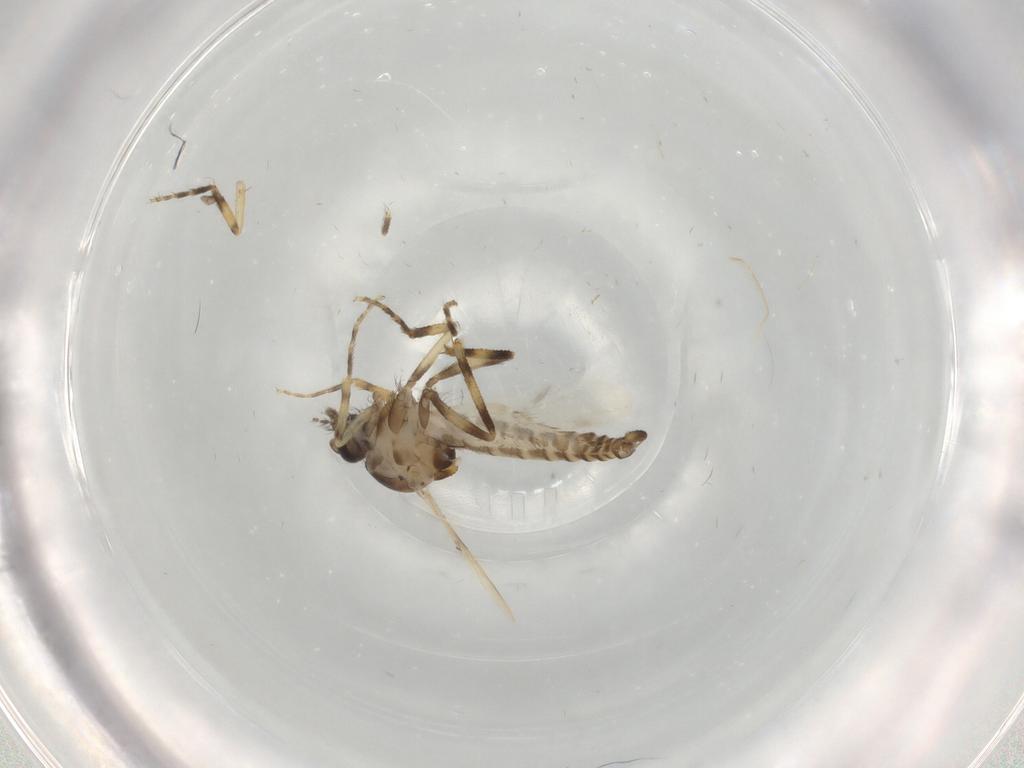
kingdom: Animalia
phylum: Arthropoda
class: Insecta
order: Diptera
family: Ceratopogonidae
